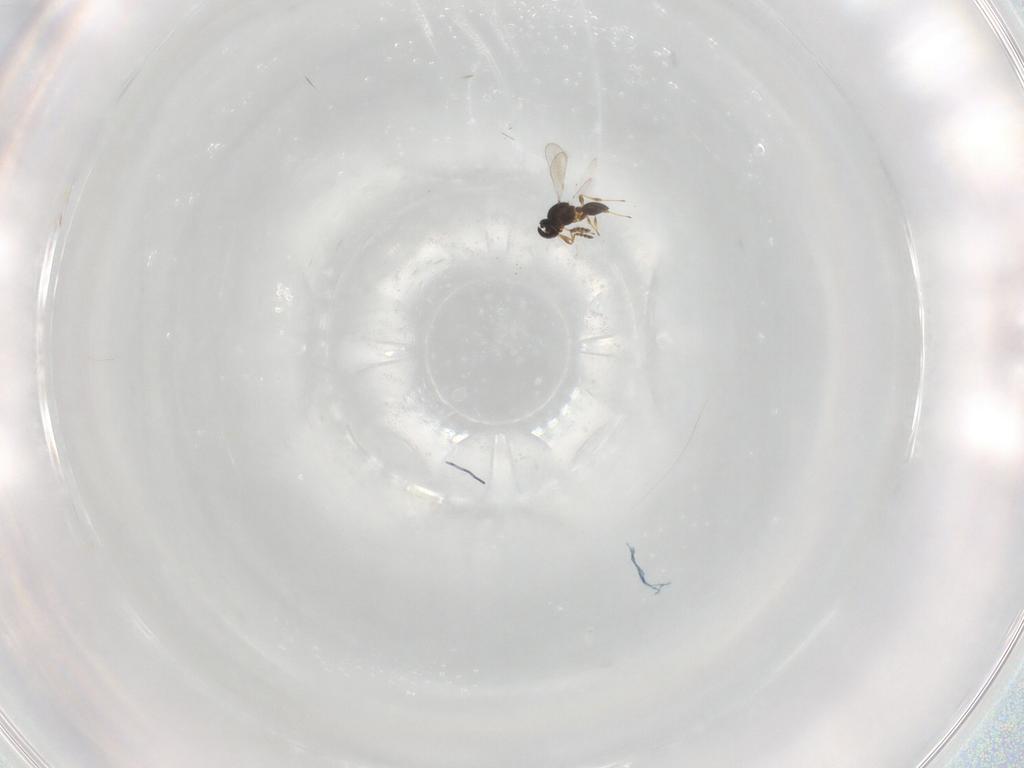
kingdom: Animalia
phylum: Arthropoda
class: Insecta
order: Hymenoptera
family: Platygastridae
